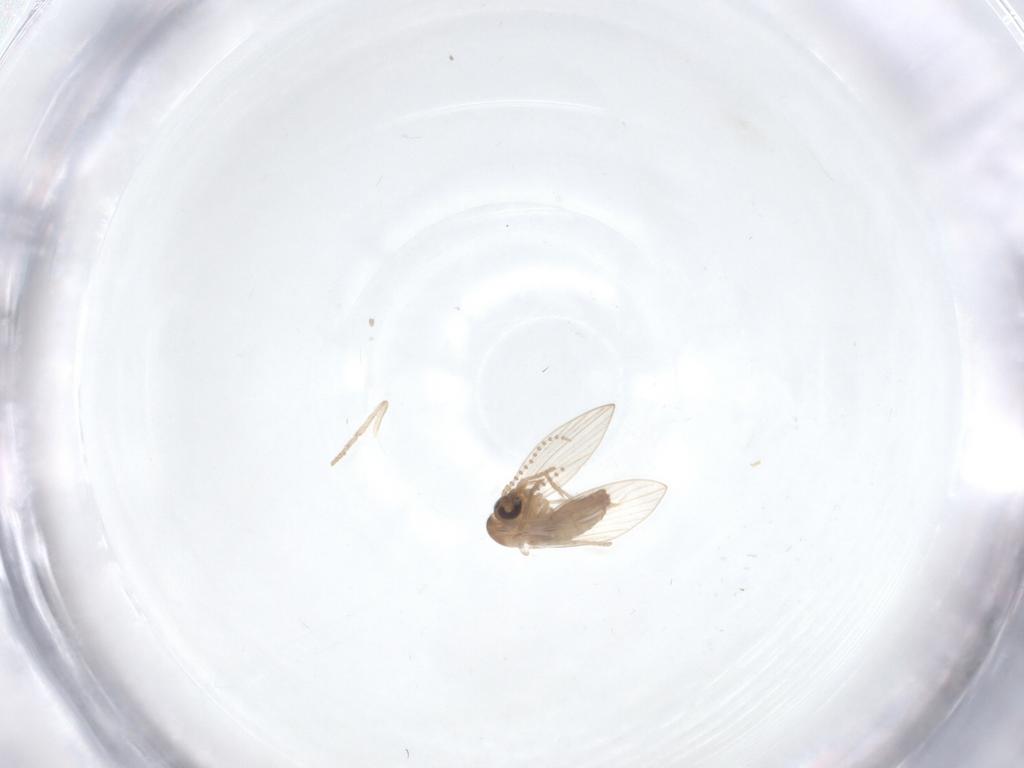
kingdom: Animalia
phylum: Arthropoda
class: Insecta
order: Diptera
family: Psychodidae
